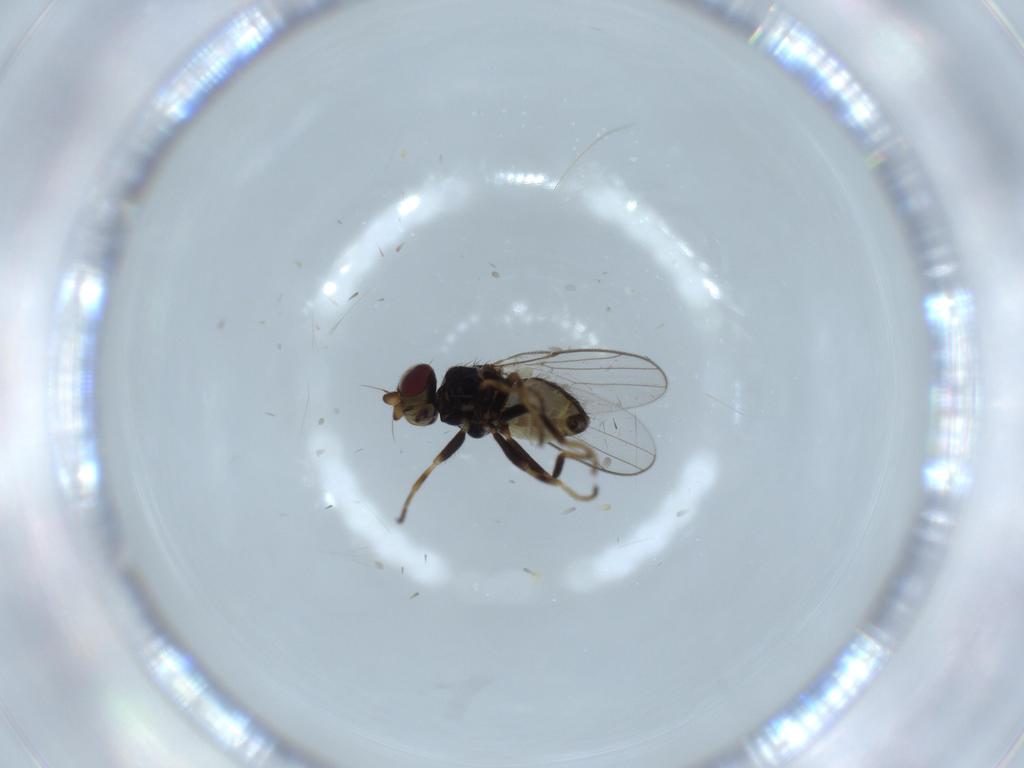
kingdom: Animalia
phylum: Arthropoda
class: Insecta
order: Diptera
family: Chloropidae
